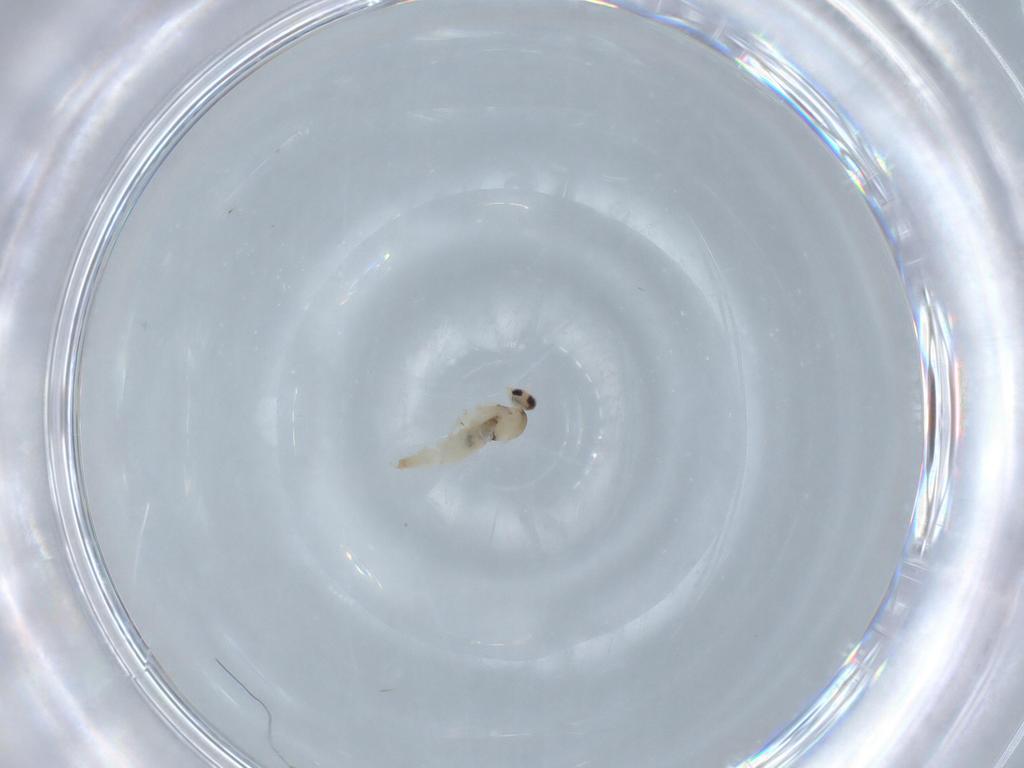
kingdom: Animalia
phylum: Arthropoda
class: Insecta
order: Diptera
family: Cecidomyiidae
